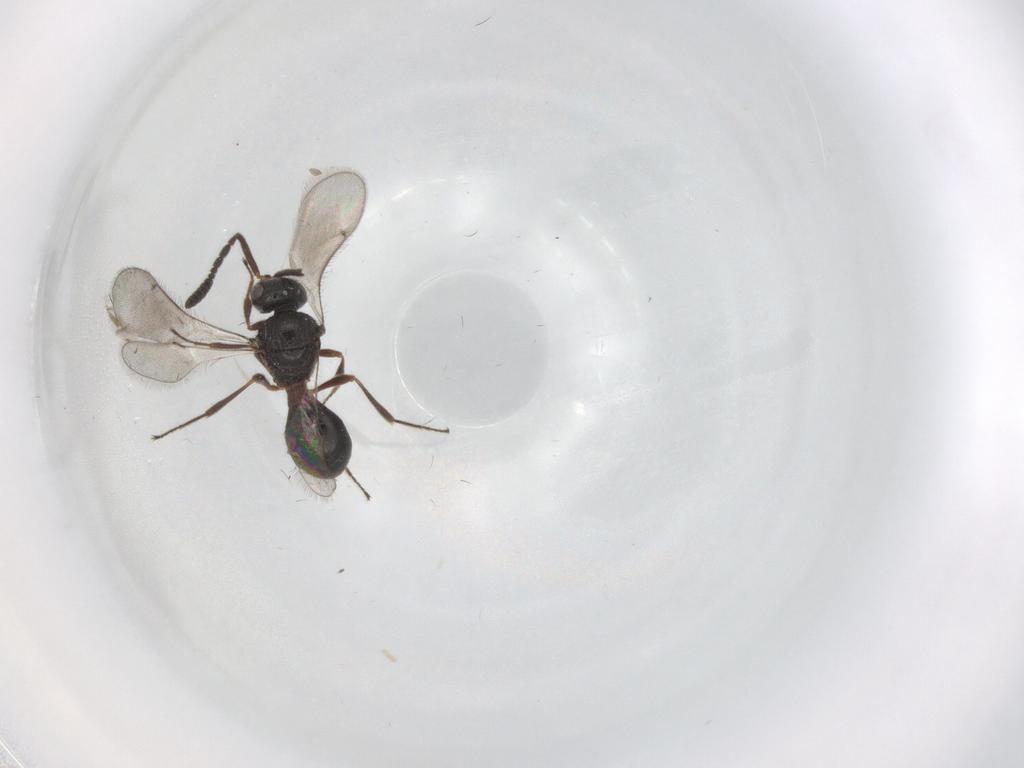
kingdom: Animalia
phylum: Arthropoda
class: Insecta
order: Hymenoptera
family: Scelionidae
